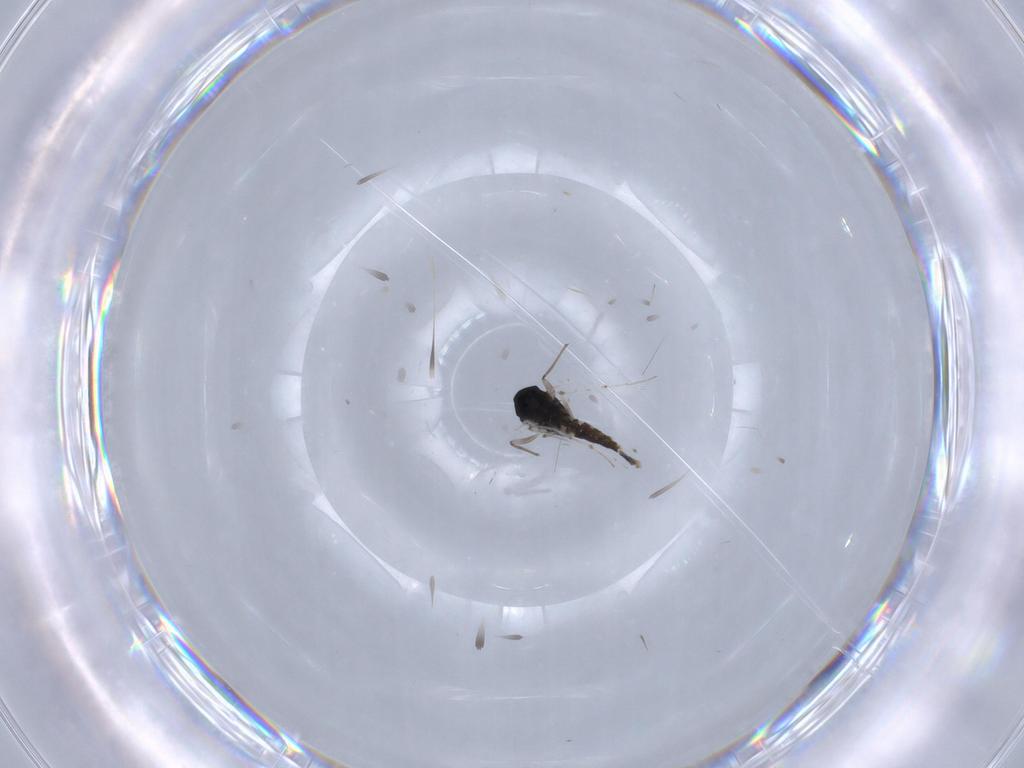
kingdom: Animalia
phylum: Arthropoda
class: Insecta
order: Diptera
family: Chironomidae
